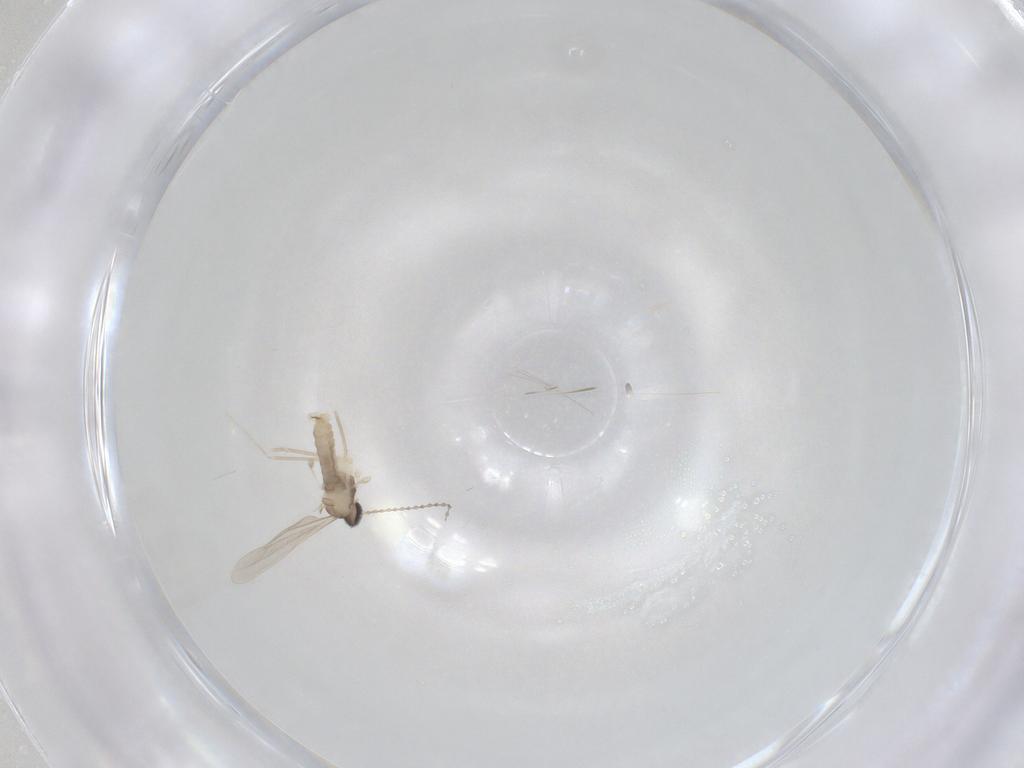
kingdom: Animalia
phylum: Arthropoda
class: Insecta
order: Diptera
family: Cecidomyiidae
